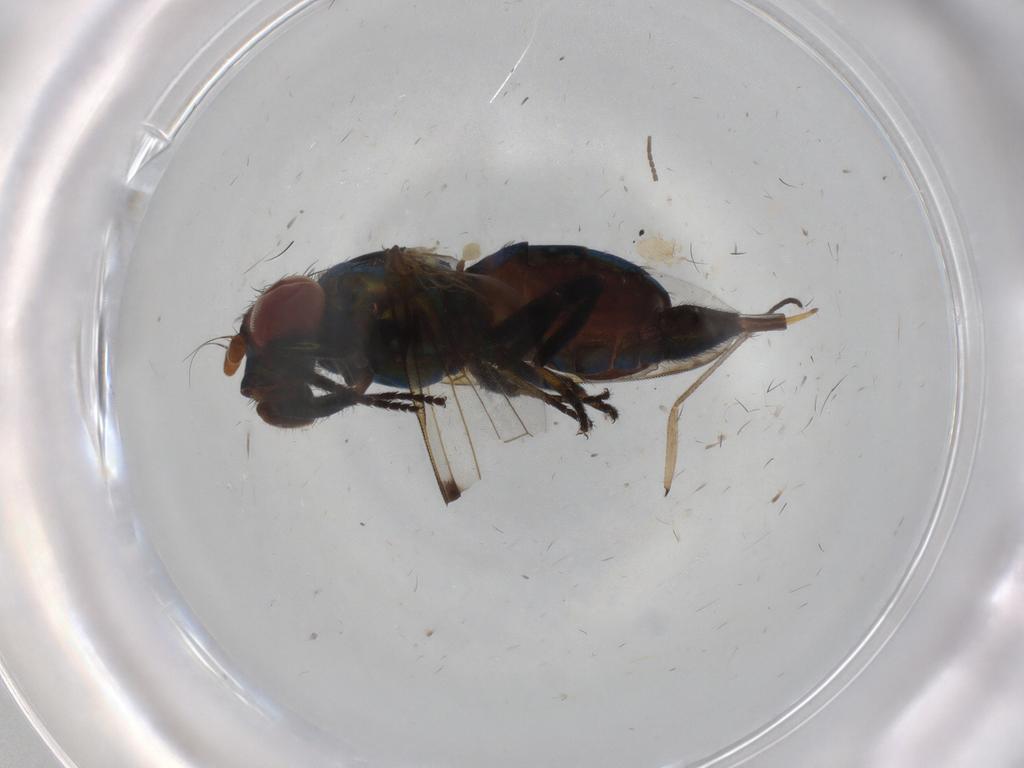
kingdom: Animalia
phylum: Arthropoda
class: Insecta
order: Diptera
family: Ulidiidae
